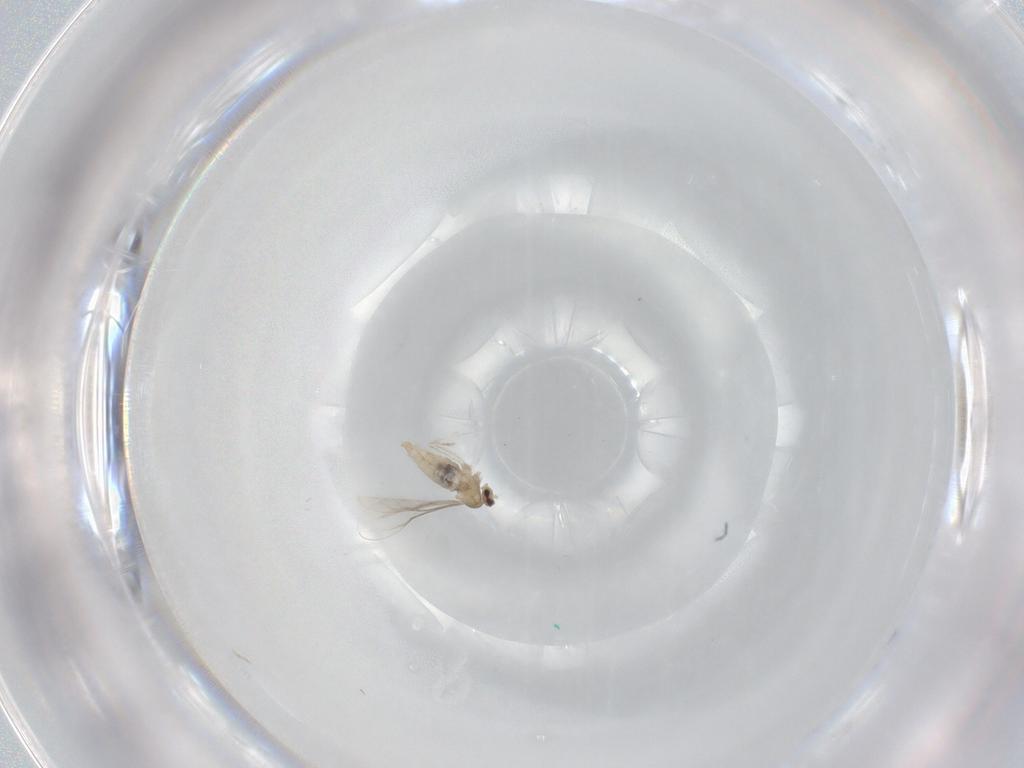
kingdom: Animalia
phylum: Arthropoda
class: Insecta
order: Diptera
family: Cecidomyiidae
